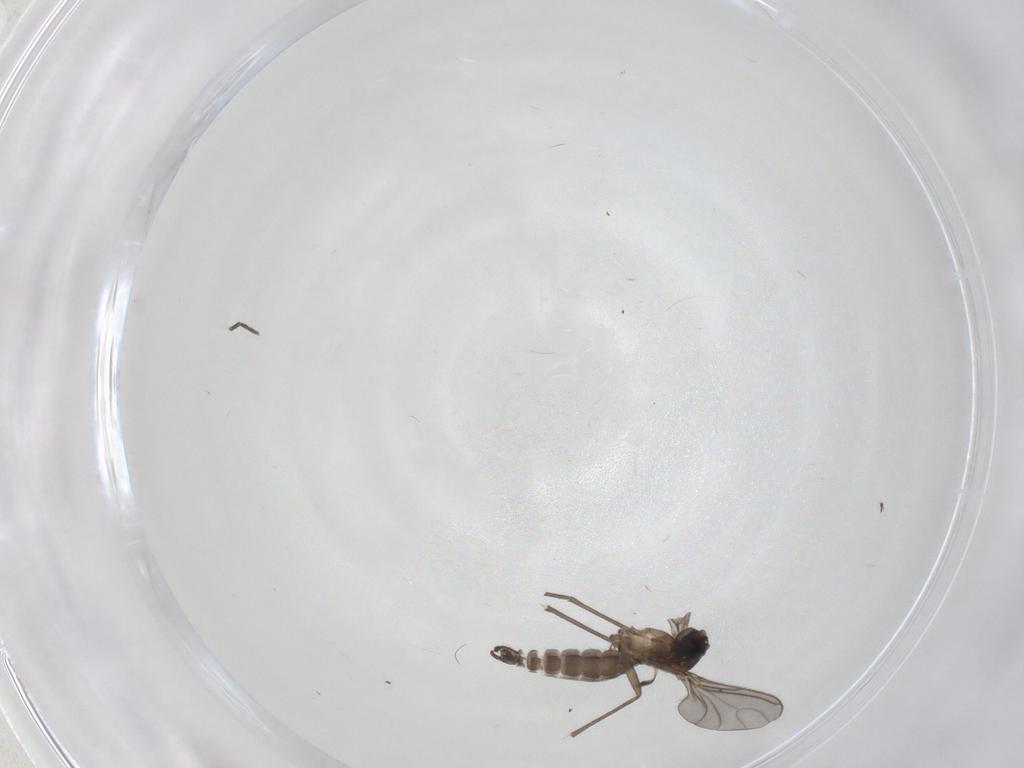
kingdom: Animalia
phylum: Arthropoda
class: Insecta
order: Diptera
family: Sciaridae
